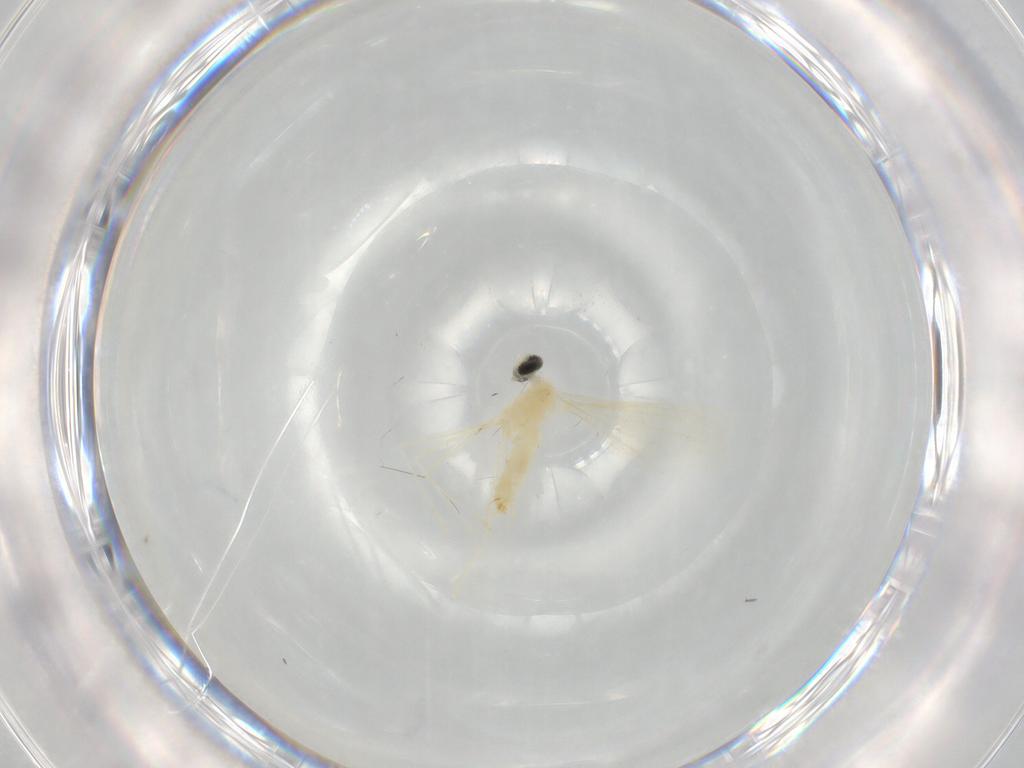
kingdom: Animalia
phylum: Arthropoda
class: Insecta
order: Diptera
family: Cecidomyiidae
